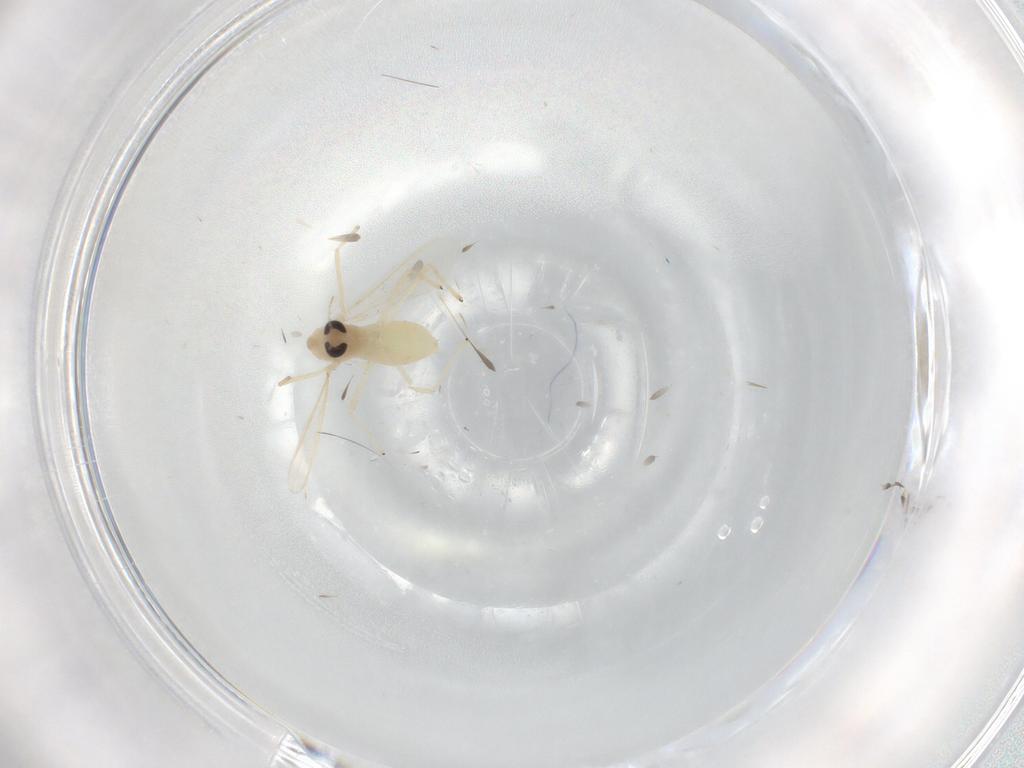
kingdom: Animalia
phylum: Arthropoda
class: Insecta
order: Diptera
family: Chironomidae
